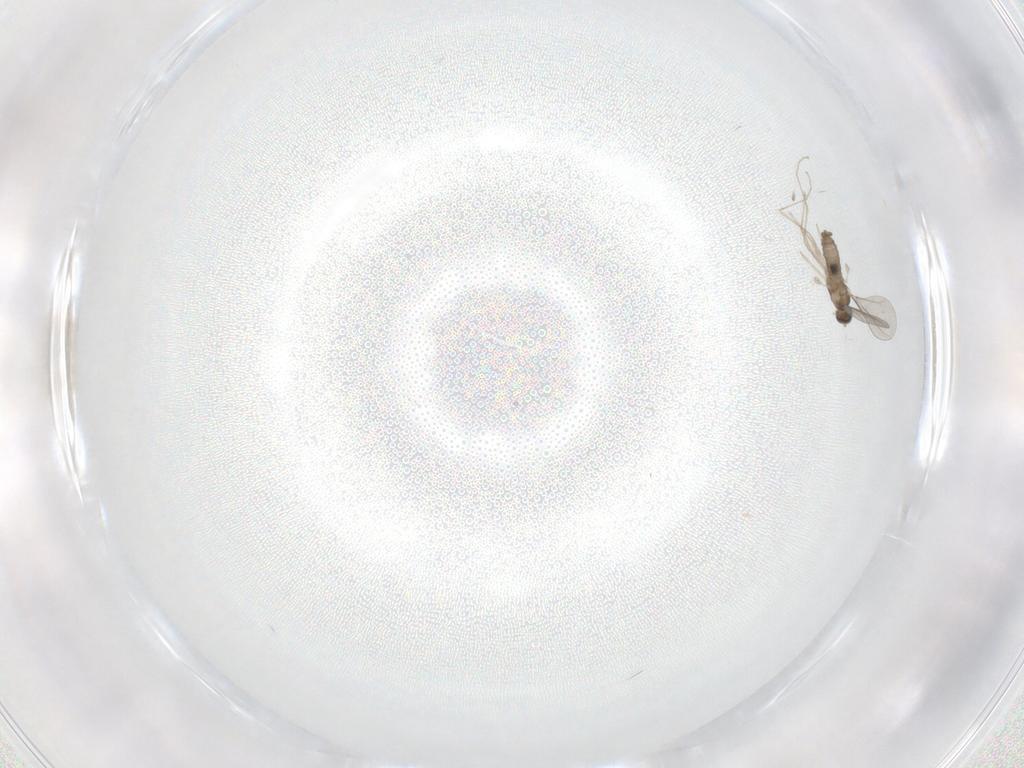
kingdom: Animalia
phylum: Arthropoda
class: Insecta
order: Diptera
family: Cecidomyiidae
